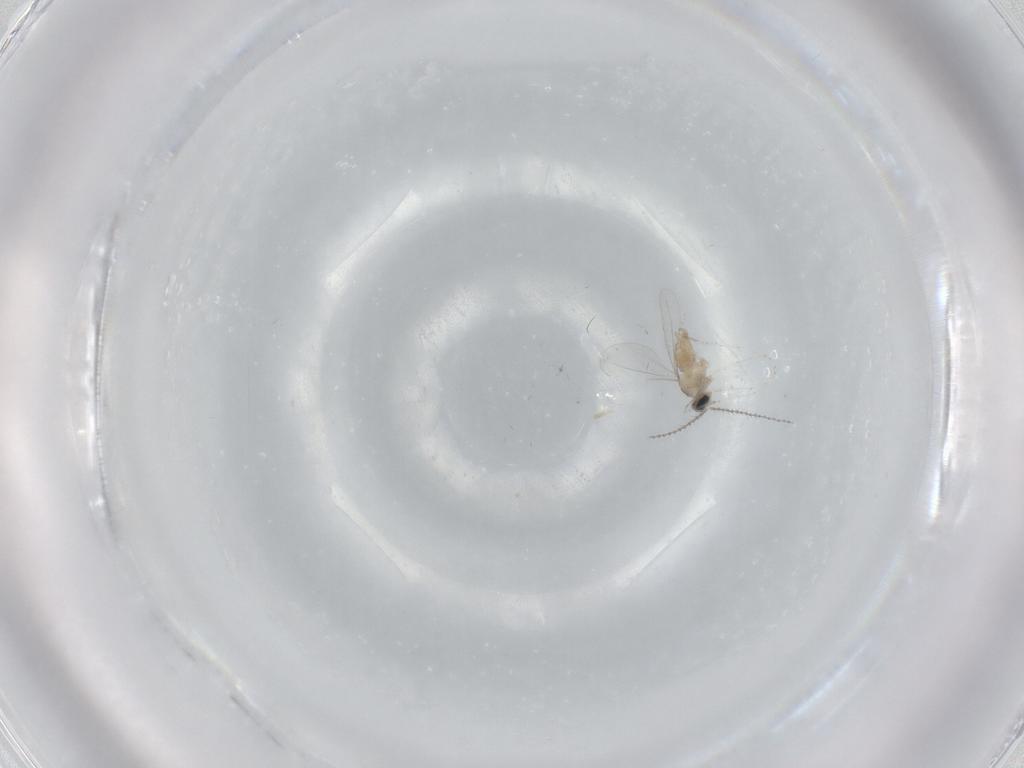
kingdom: Animalia
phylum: Arthropoda
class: Insecta
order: Diptera
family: Cecidomyiidae
